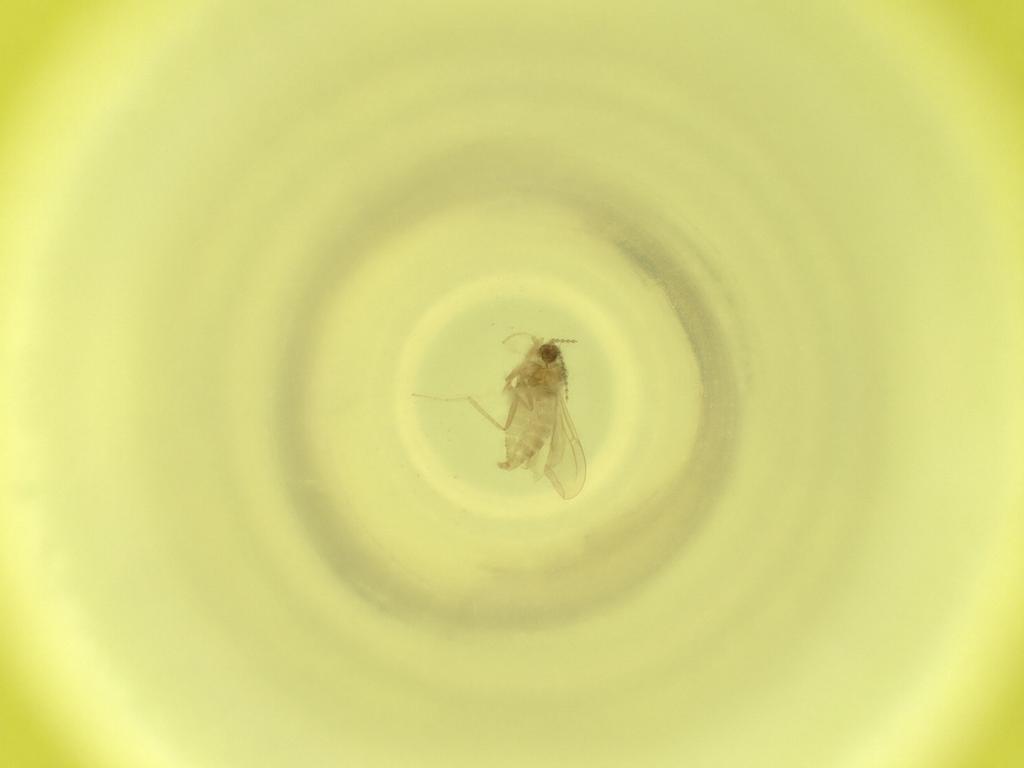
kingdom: Animalia
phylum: Arthropoda
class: Insecta
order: Diptera
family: Cecidomyiidae
